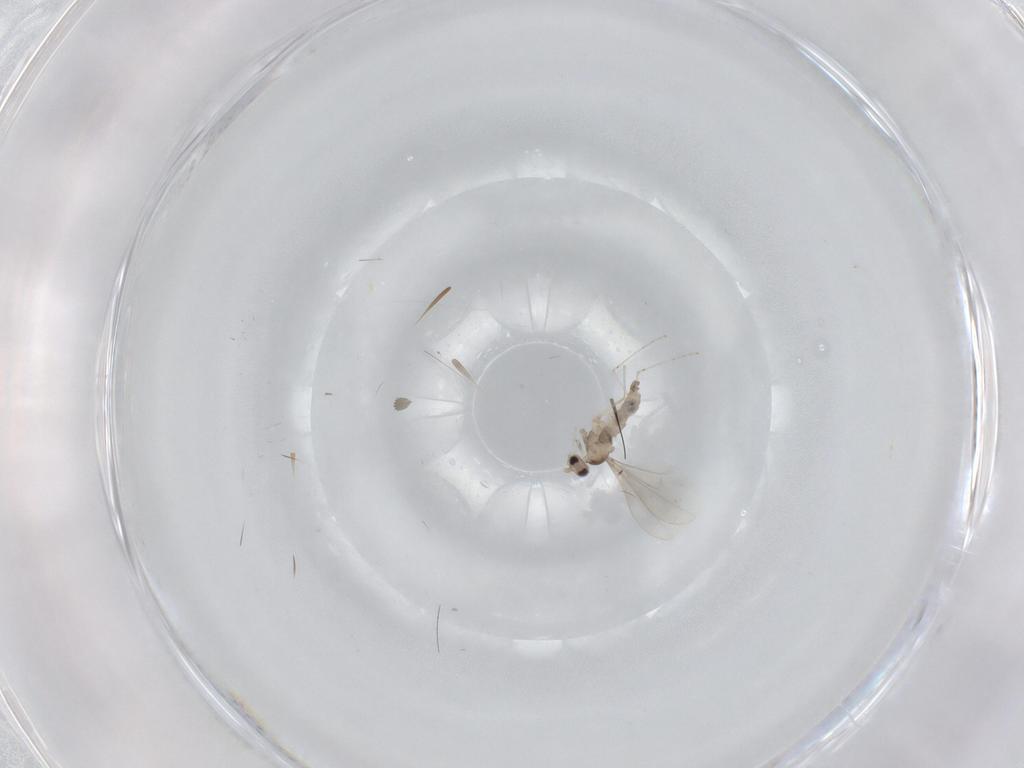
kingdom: Animalia
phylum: Arthropoda
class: Insecta
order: Diptera
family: Cecidomyiidae
